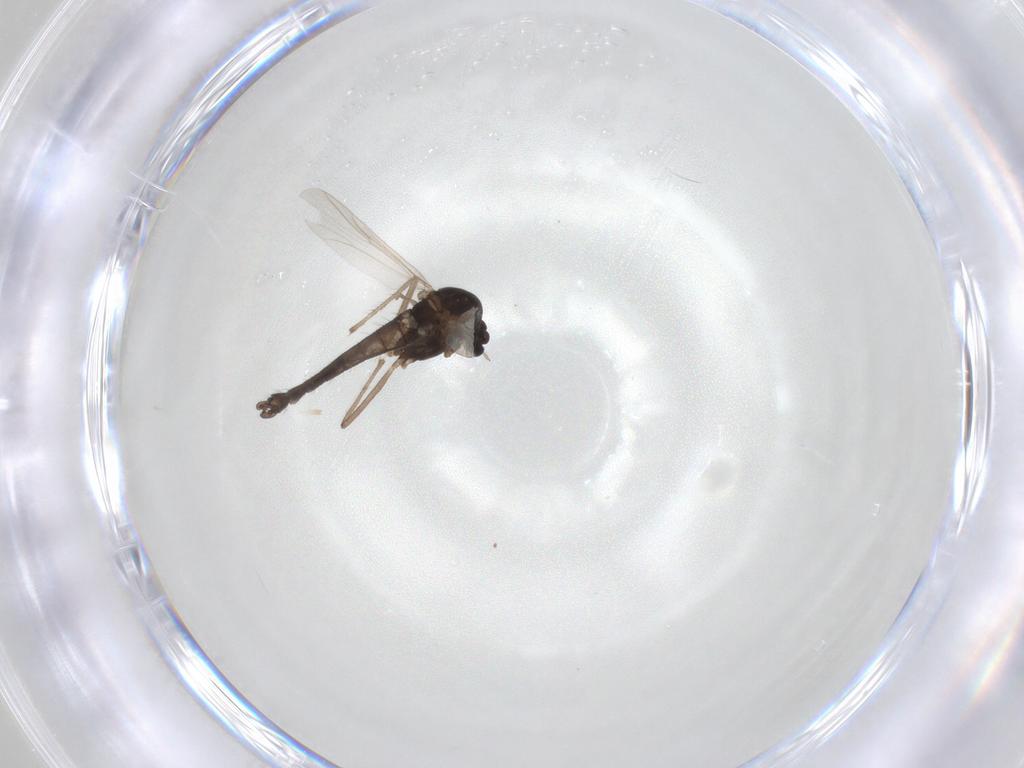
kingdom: Animalia
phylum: Arthropoda
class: Insecta
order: Diptera
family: Chironomidae
